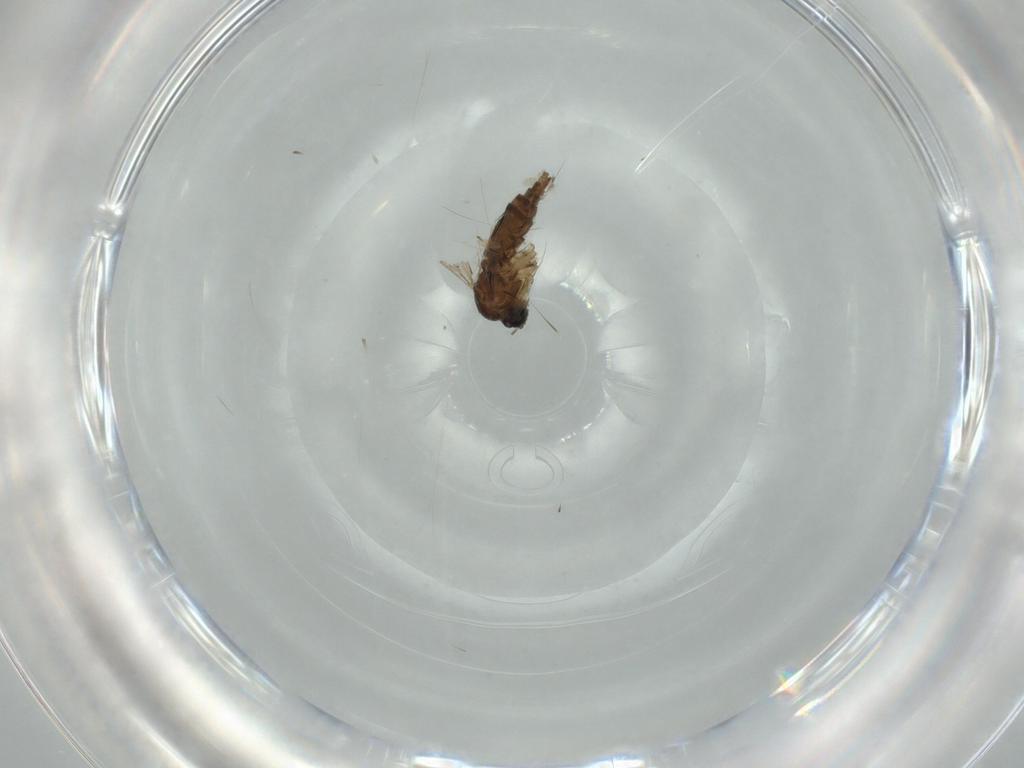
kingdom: Animalia
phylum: Arthropoda
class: Insecta
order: Diptera
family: Sciaridae
